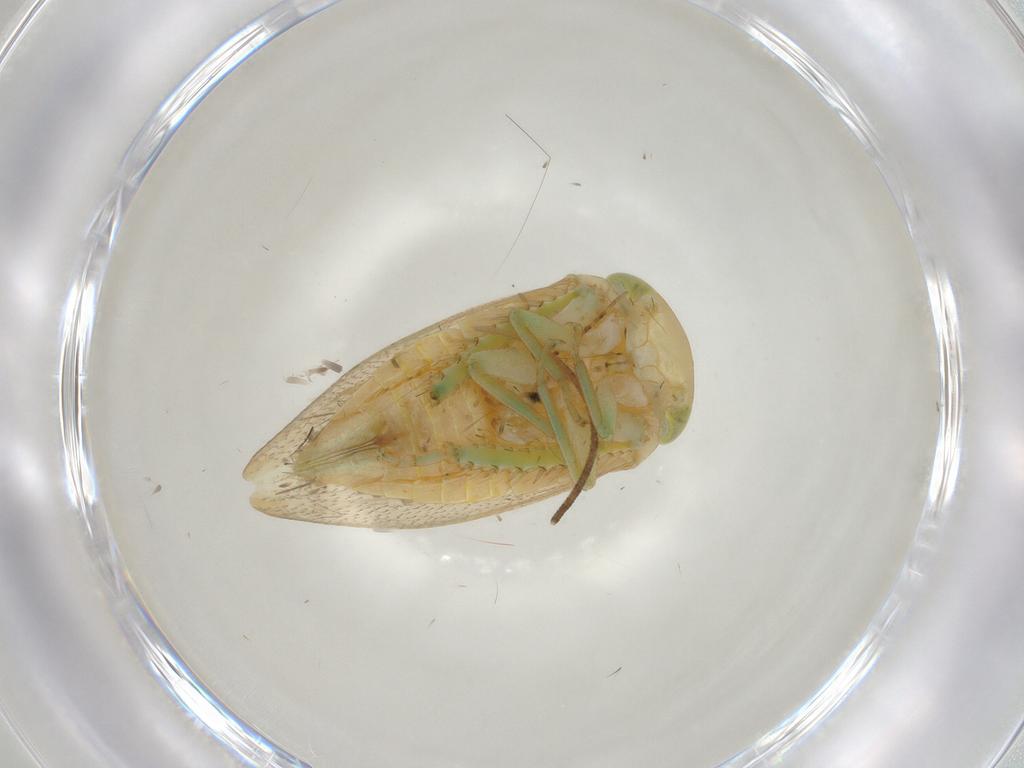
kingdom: Animalia
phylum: Arthropoda
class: Insecta
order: Hemiptera
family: Cicadellidae
